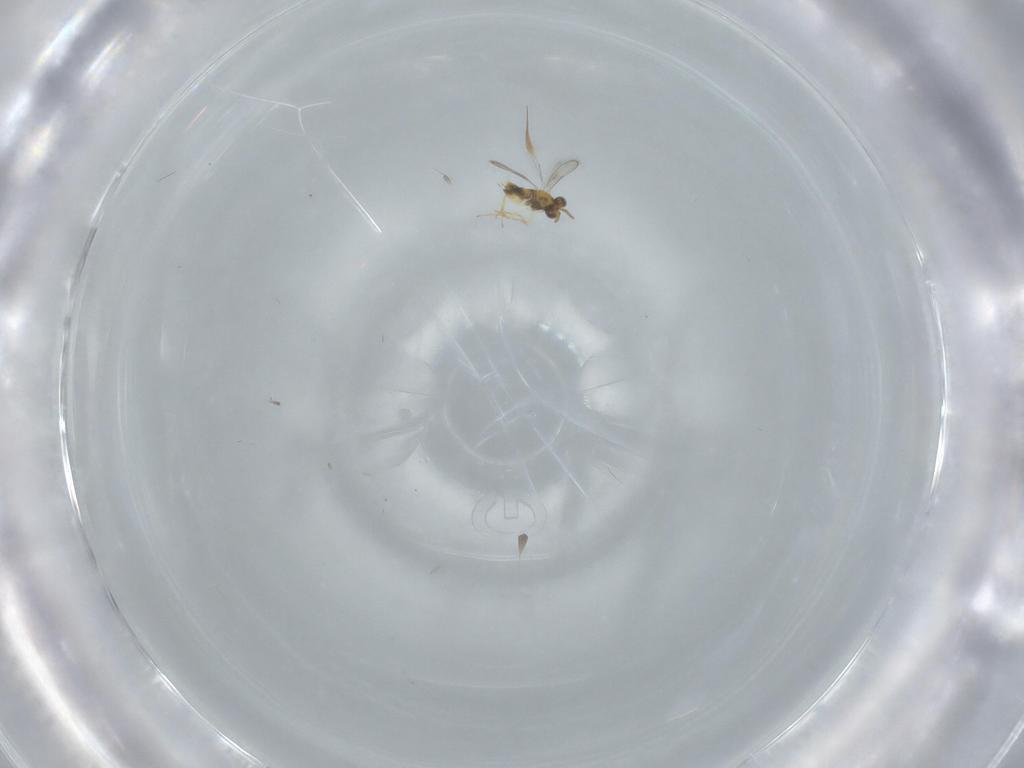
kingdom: Animalia
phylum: Arthropoda
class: Insecta
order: Hymenoptera
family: Aphelinidae
